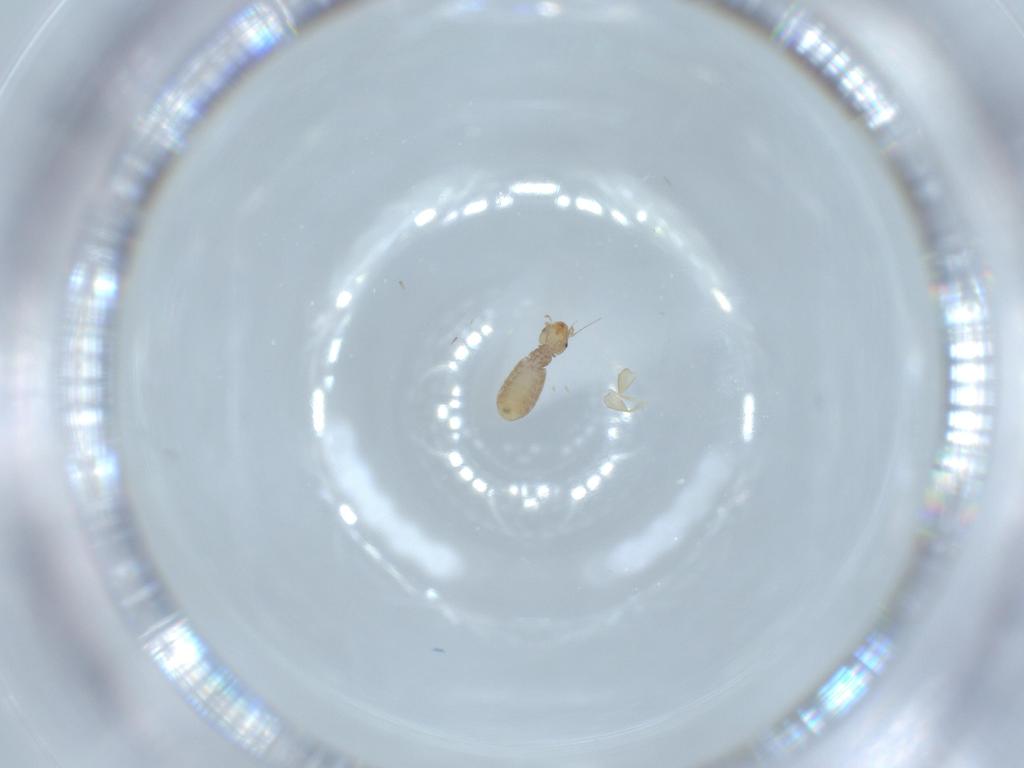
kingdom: Animalia
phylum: Arthropoda
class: Insecta
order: Psocodea
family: Liposcelididae
